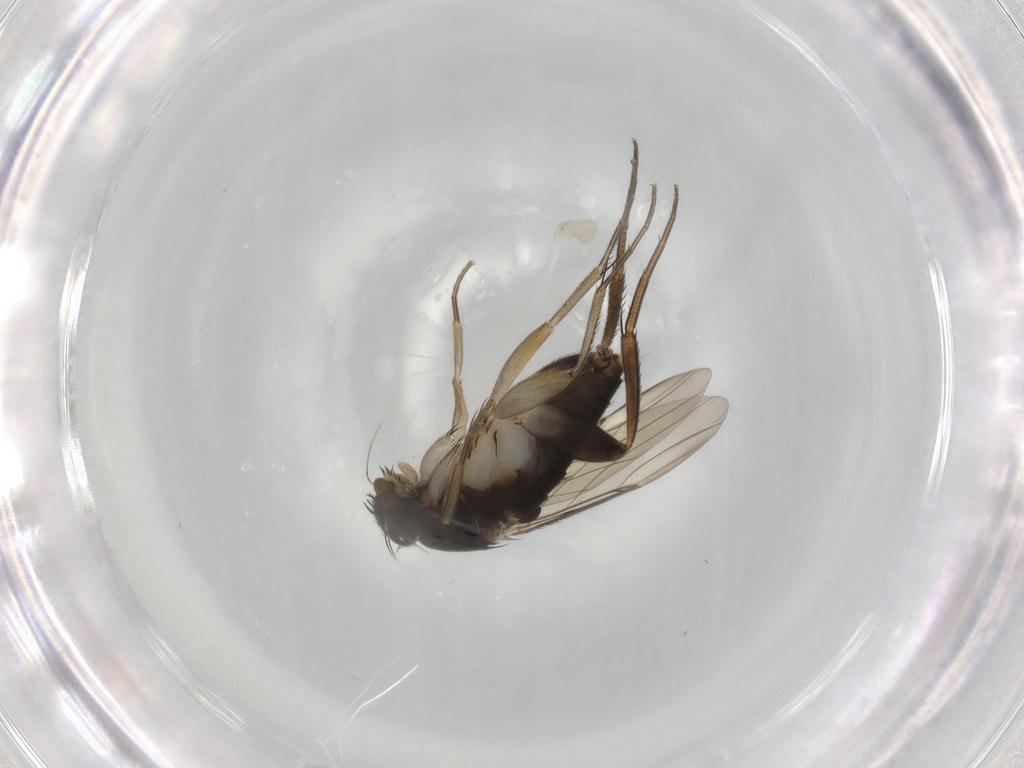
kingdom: Animalia
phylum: Arthropoda
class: Insecta
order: Diptera
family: Phoridae
